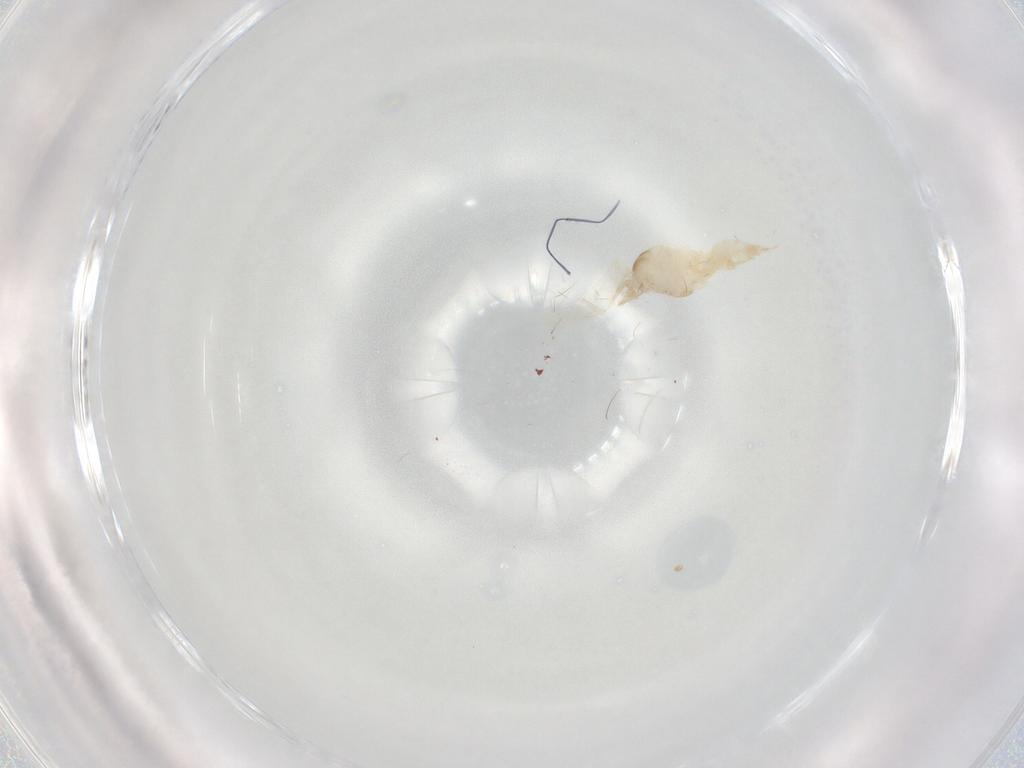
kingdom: Animalia
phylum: Arthropoda
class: Insecta
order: Diptera
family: Cecidomyiidae
